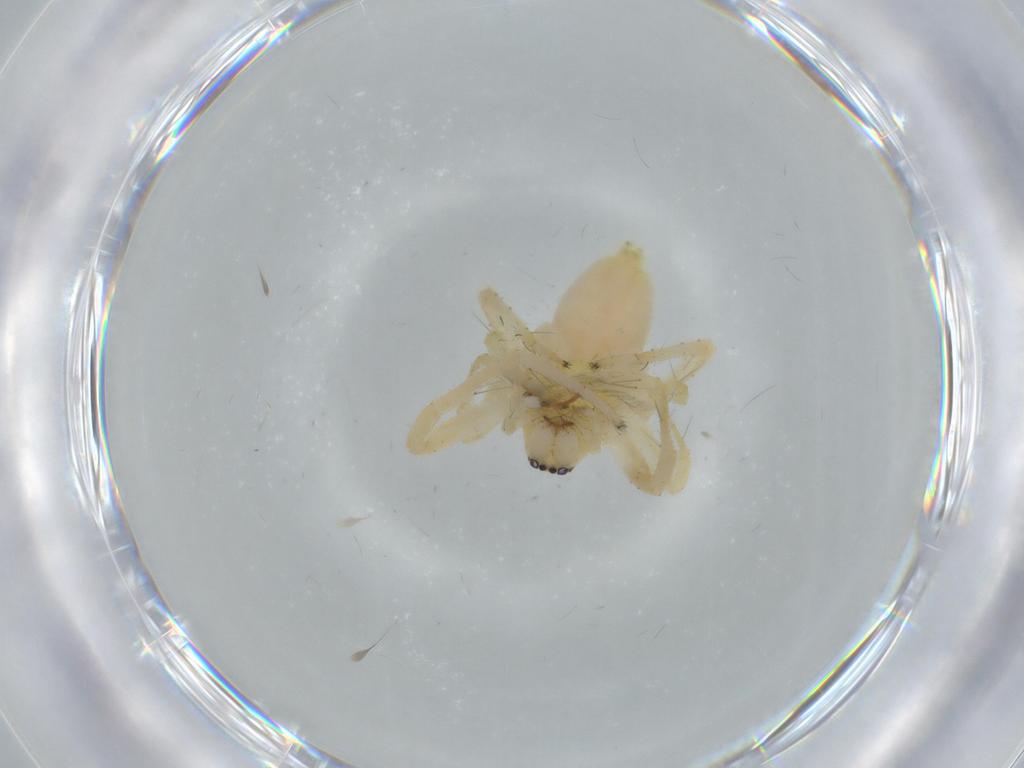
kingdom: Animalia
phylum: Arthropoda
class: Arachnida
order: Araneae
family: Anyphaenidae
